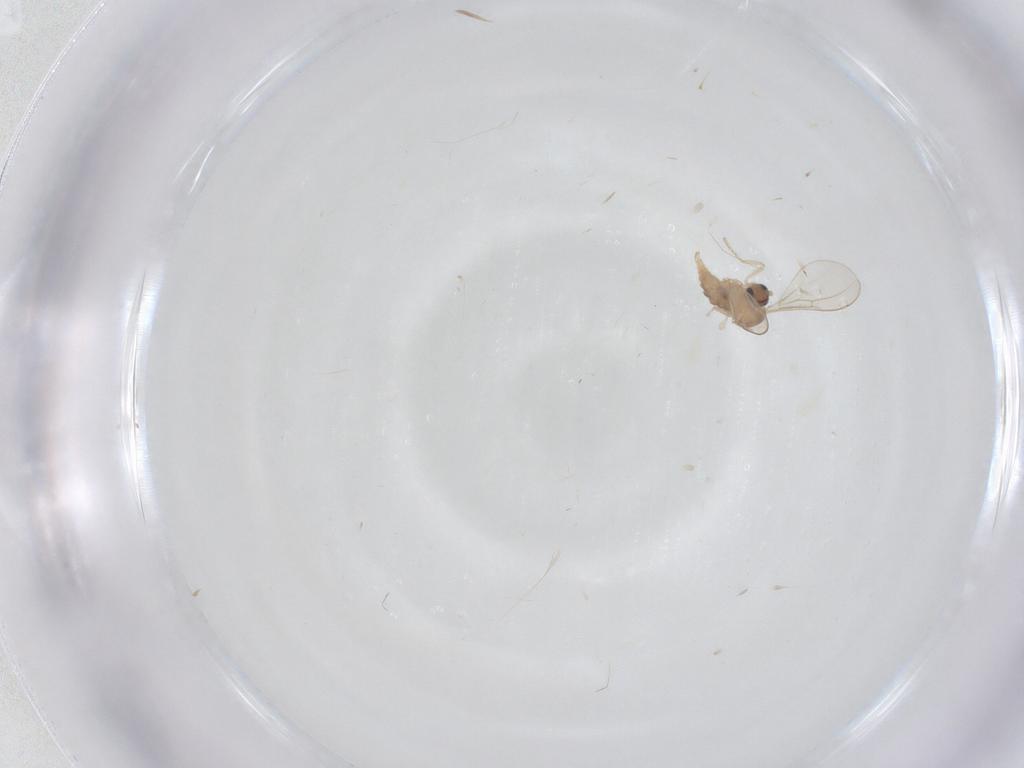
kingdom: Animalia
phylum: Arthropoda
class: Insecta
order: Diptera
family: Cecidomyiidae
